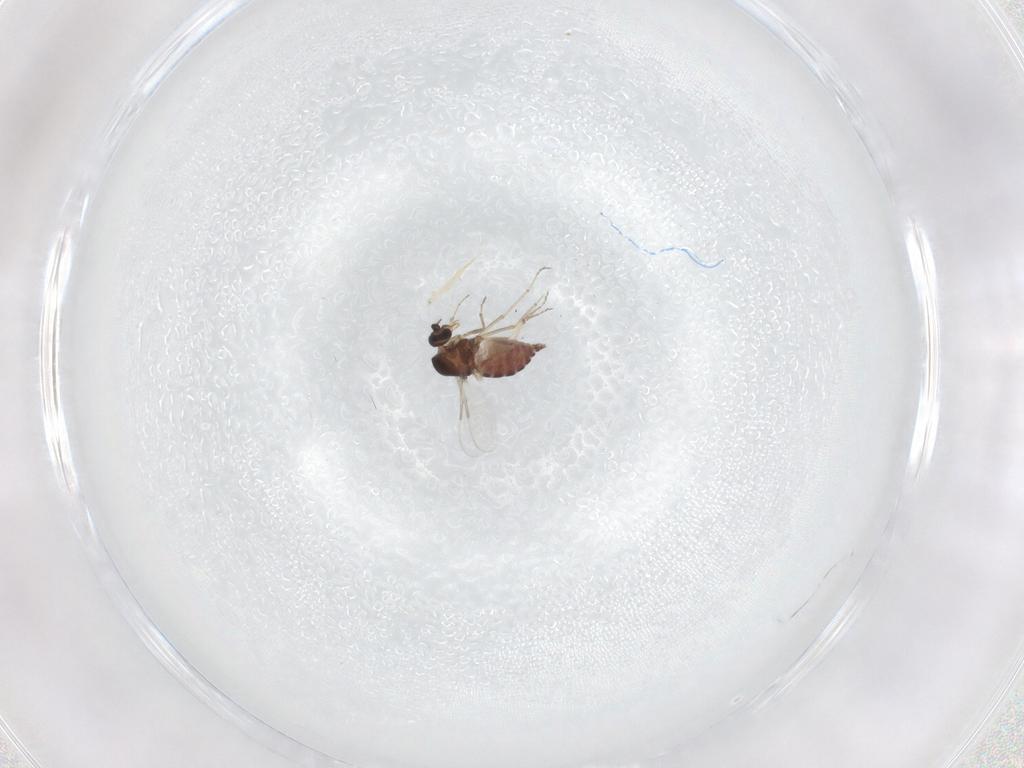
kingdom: Animalia
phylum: Arthropoda
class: Insecta
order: Diptera
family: Ceratopogonidae
